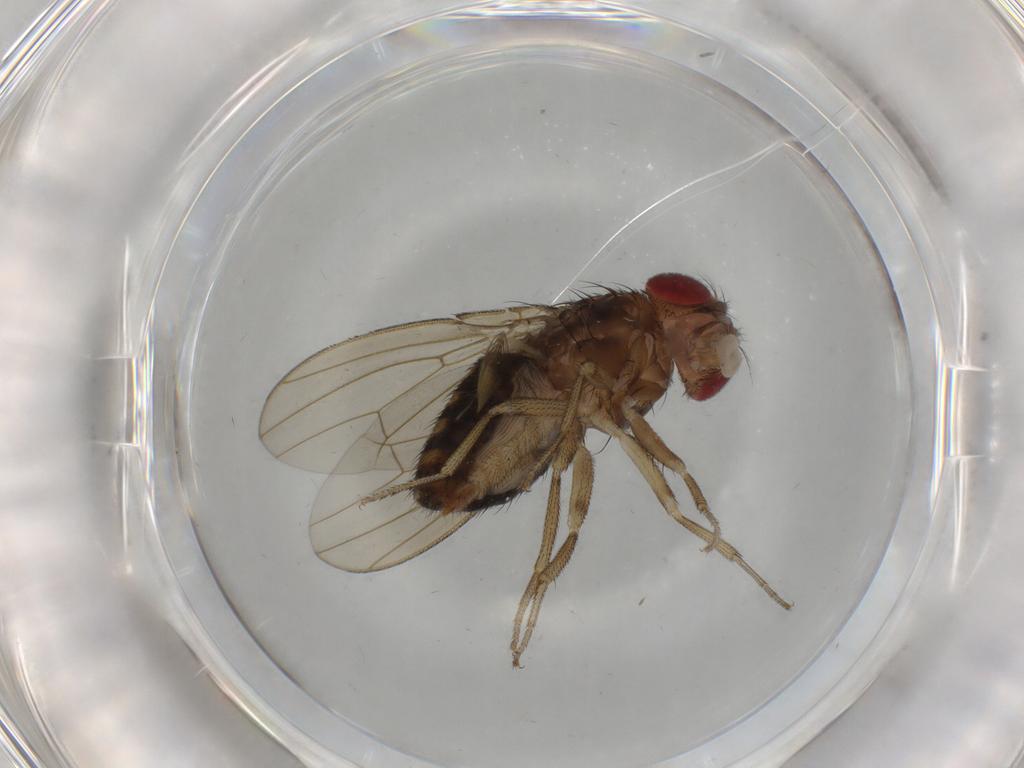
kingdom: Animalia
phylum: Arthropoda
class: Insecta
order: Diptera
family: Drosophilidae
